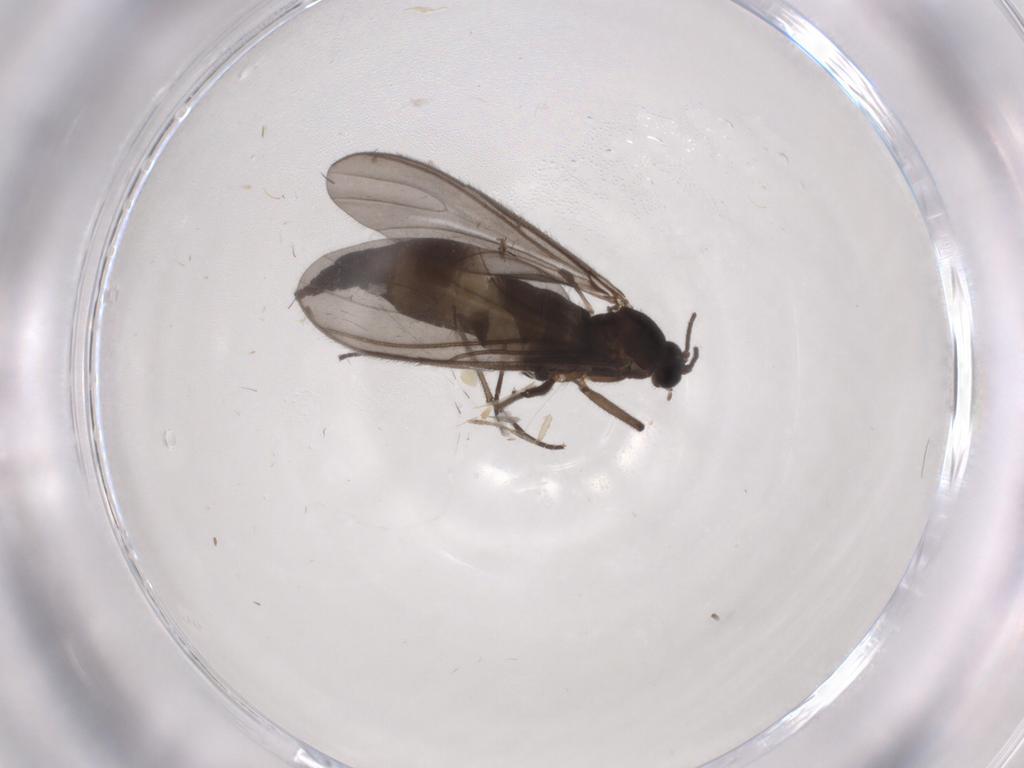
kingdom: Animalia
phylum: Arthropoda
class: Insecta
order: Diptera
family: Sciaridae
